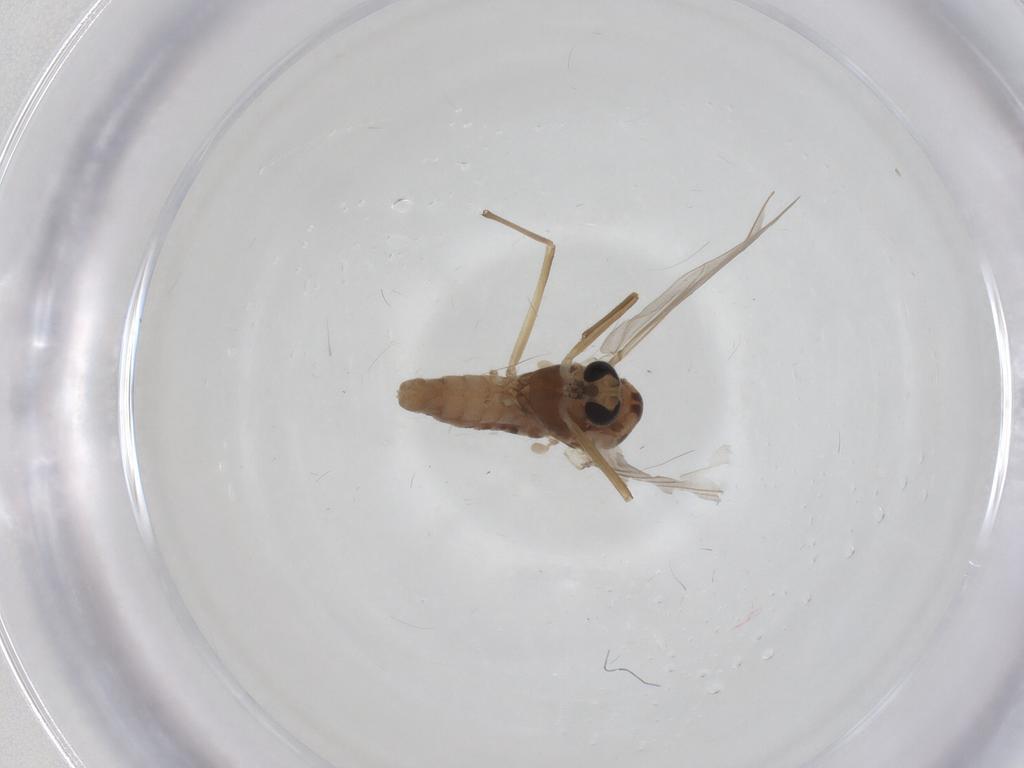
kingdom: Animalia
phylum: Arthropoda
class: Insecta
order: Diptera
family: Chironomidae
